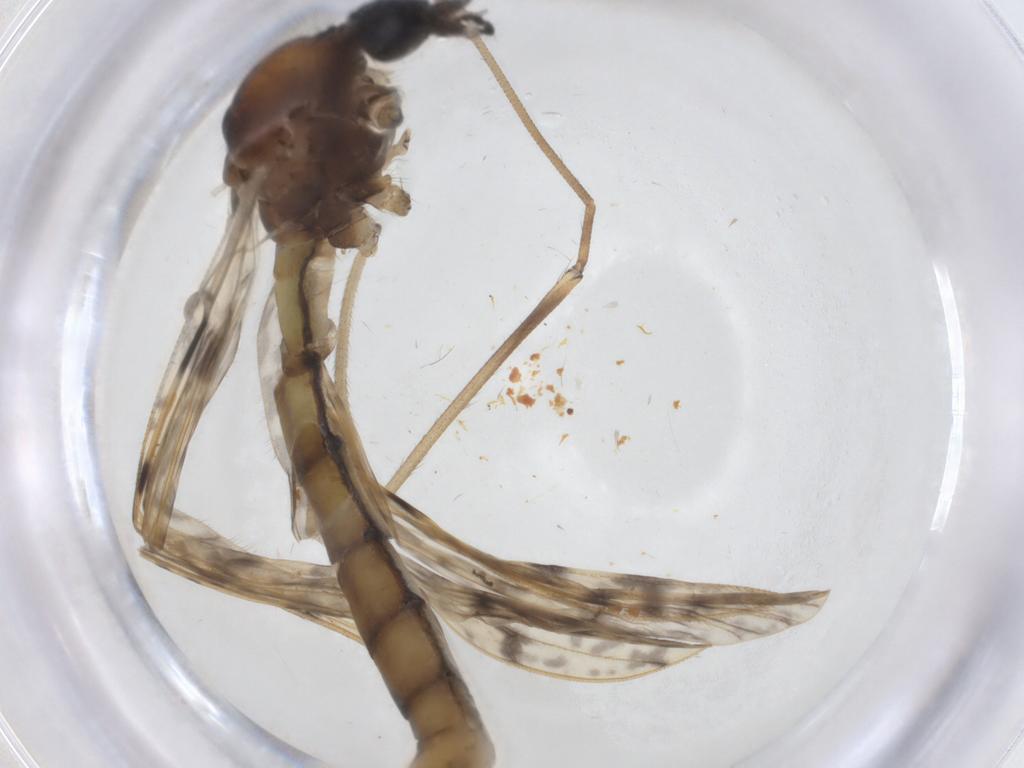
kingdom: Animalia
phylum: Arthropoda
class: Insecta
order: Diptera
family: Limoniidae
